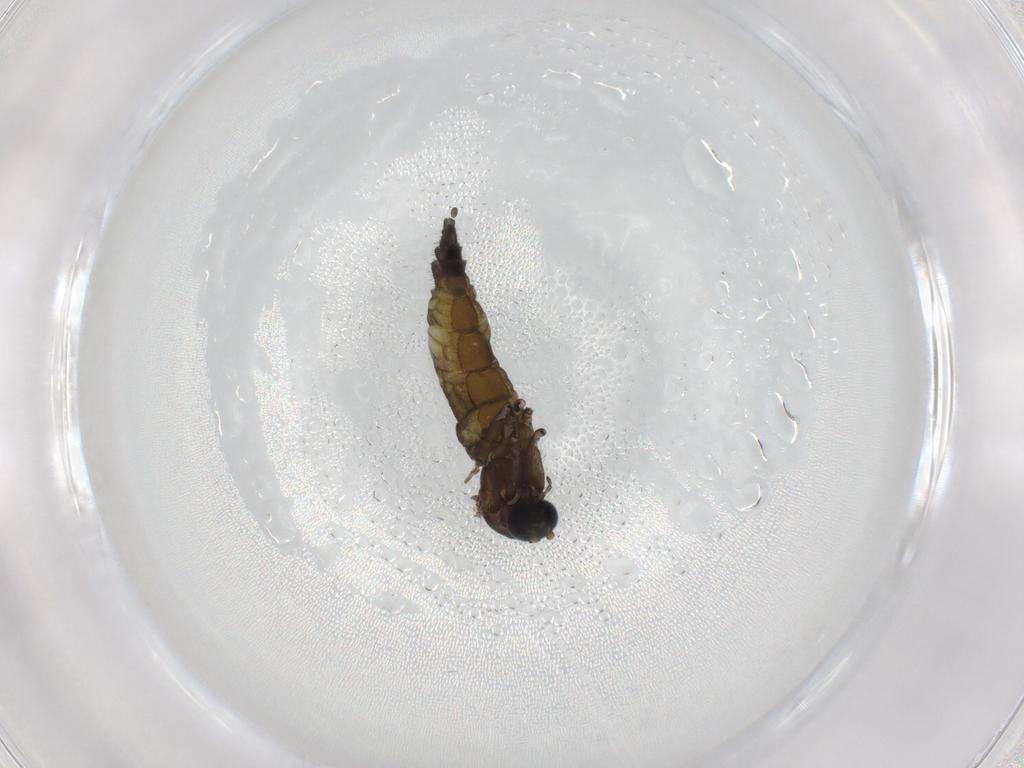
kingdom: Animalia
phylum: Arthropoda
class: Insecta
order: Diptera
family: Sciaridae
